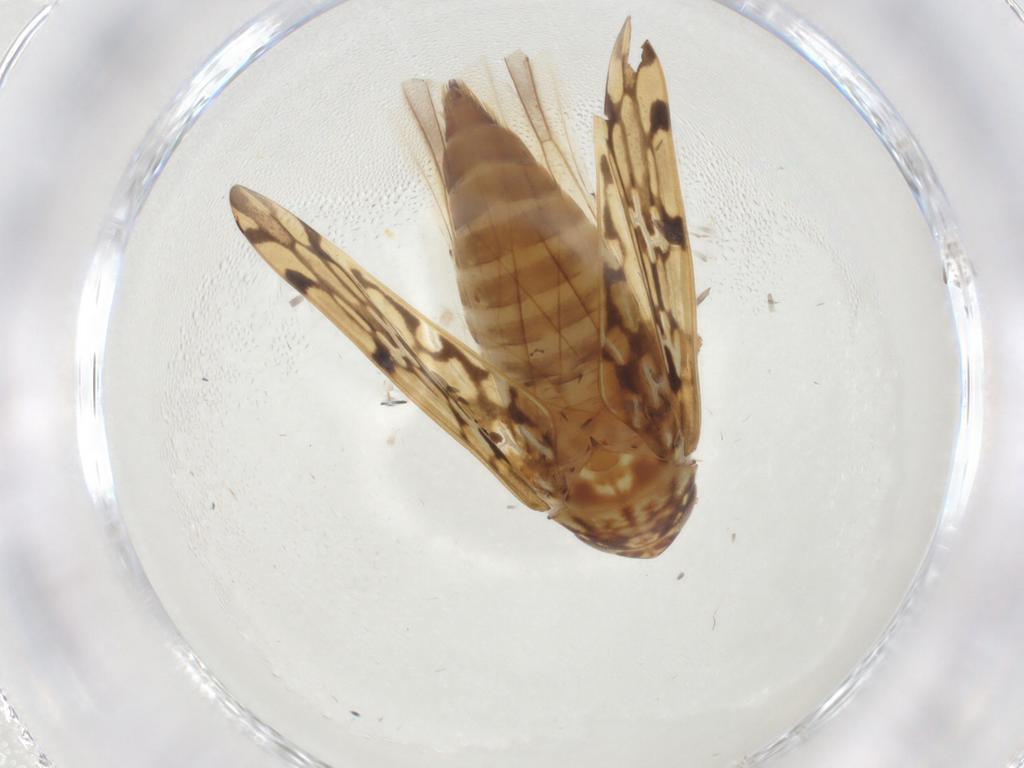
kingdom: Animalia
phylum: Arthropoda
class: Insecta
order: Hemiptera
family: Cicadellidae
